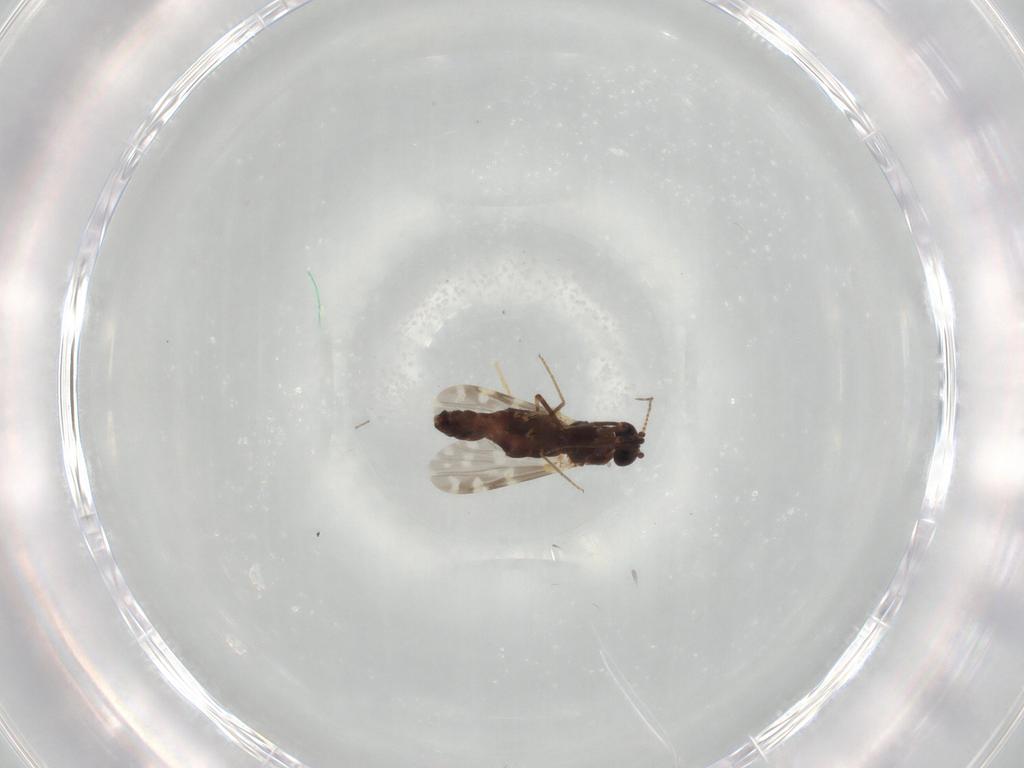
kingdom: Animalia
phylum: Arthropoda
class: Insecta
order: Diptera
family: Ceratopogonidae
